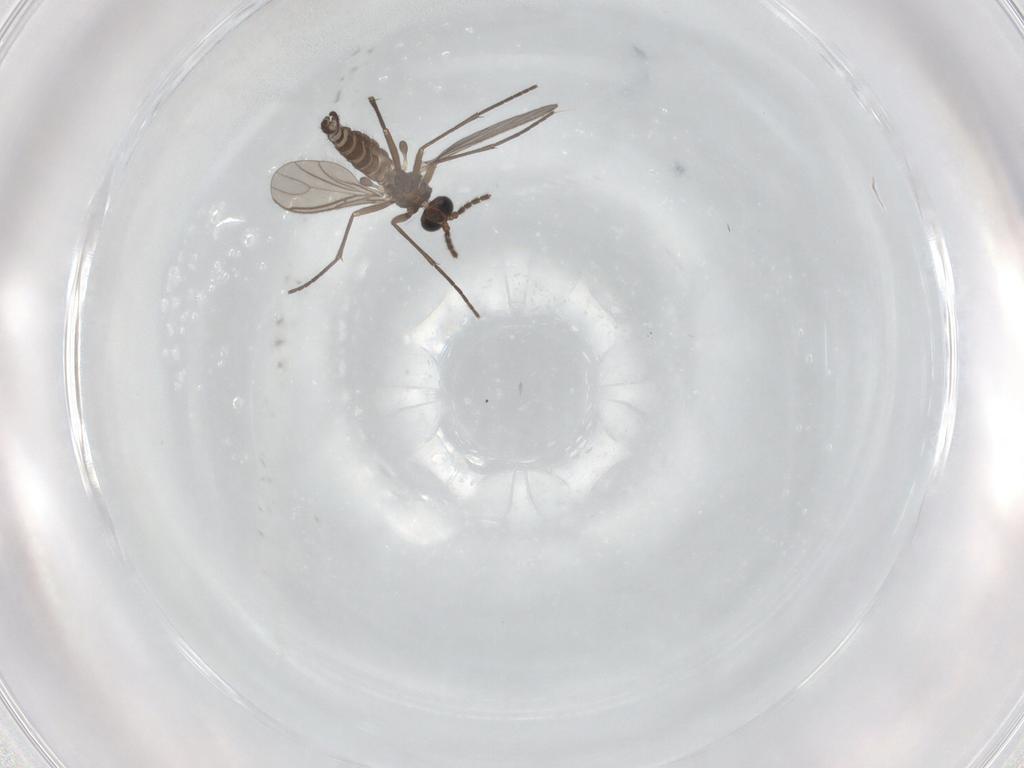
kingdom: Animalia
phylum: Arthropoda
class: Insecta
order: Diptera
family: Sciaridae
